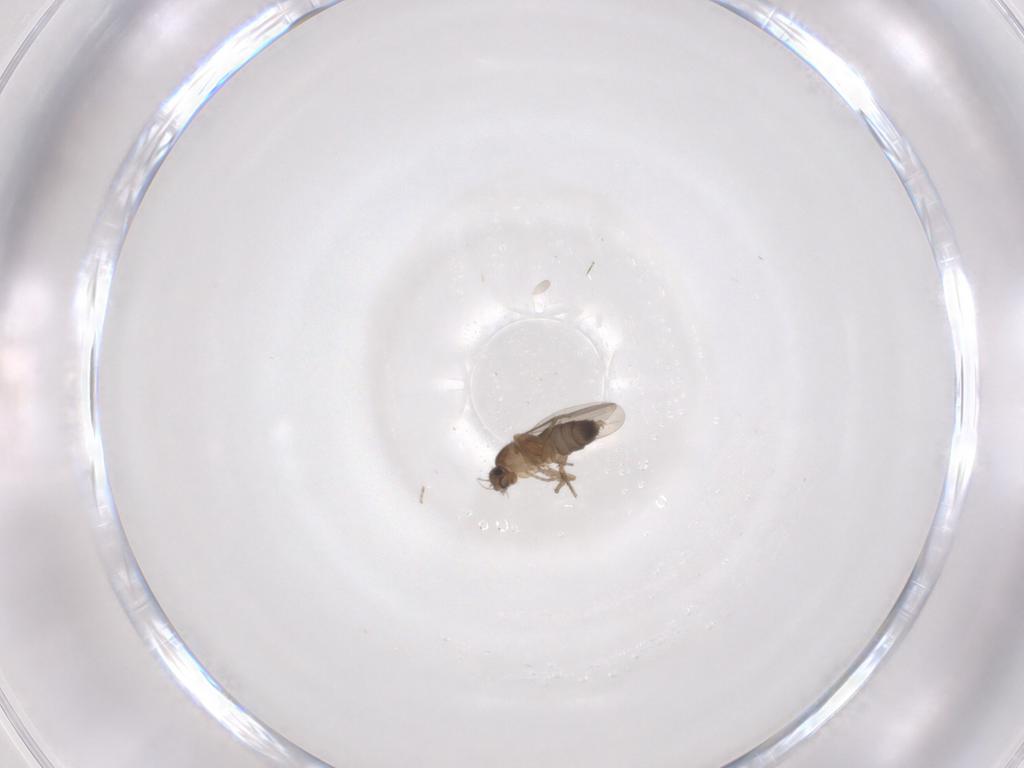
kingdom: Animalia
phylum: Arthropoda
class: Insecta
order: Diptera
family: Phoridae
